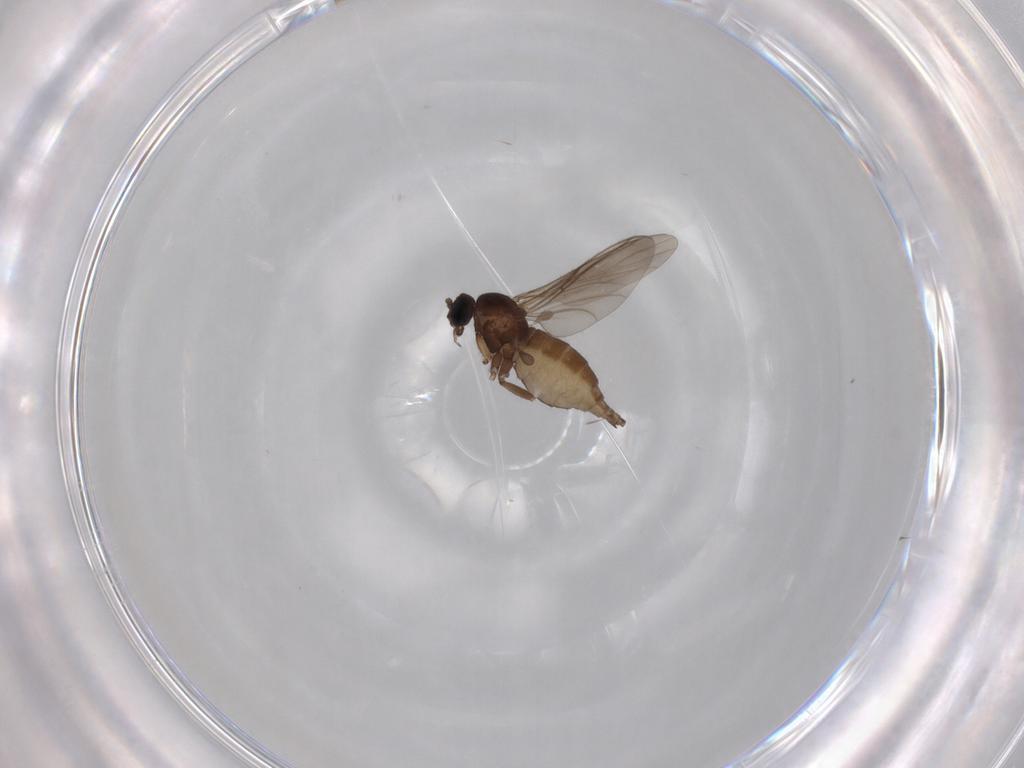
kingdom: Animalia
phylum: Arthropoda
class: Insecta
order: Diptera
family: Sciaridae
